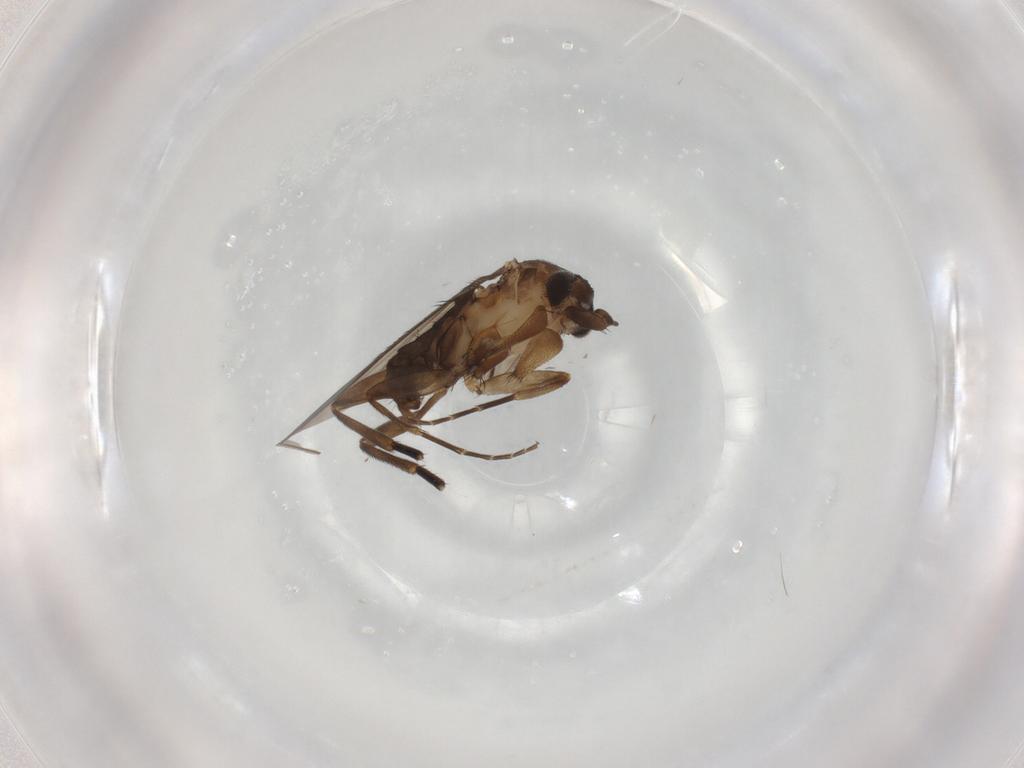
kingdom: Animalia
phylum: Arthropoda
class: Insecta
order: Diptera
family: Phoridae
